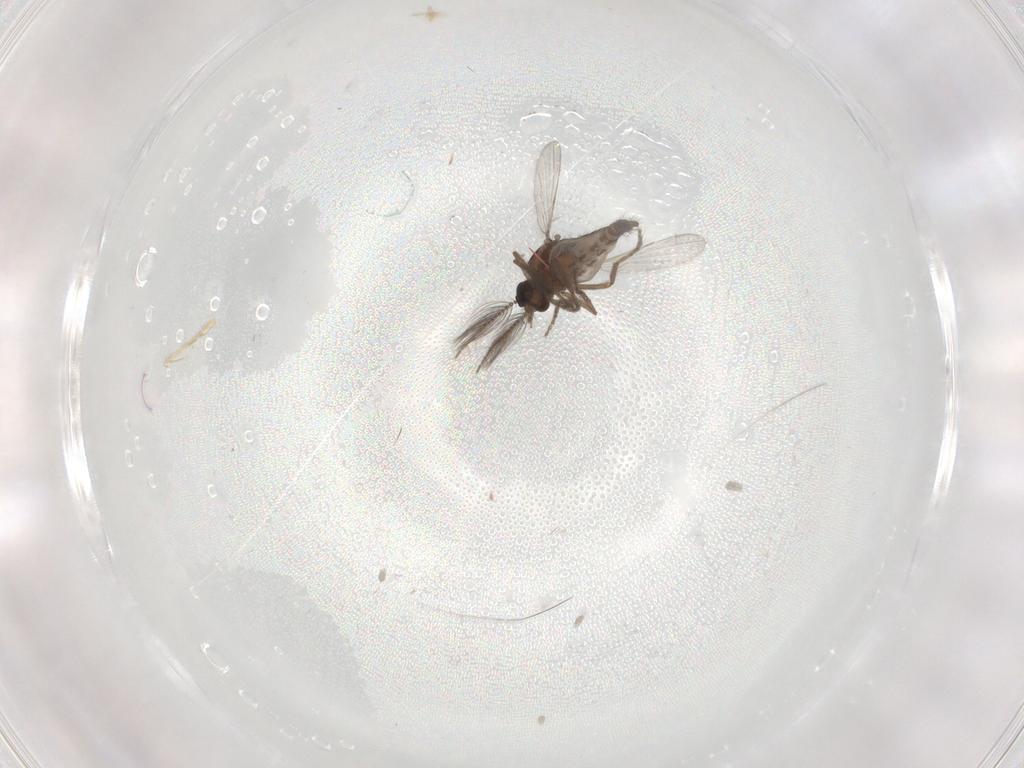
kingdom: Animalia
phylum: Arthropoda
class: Insecta
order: Diptera
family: Ceratopogonidae
